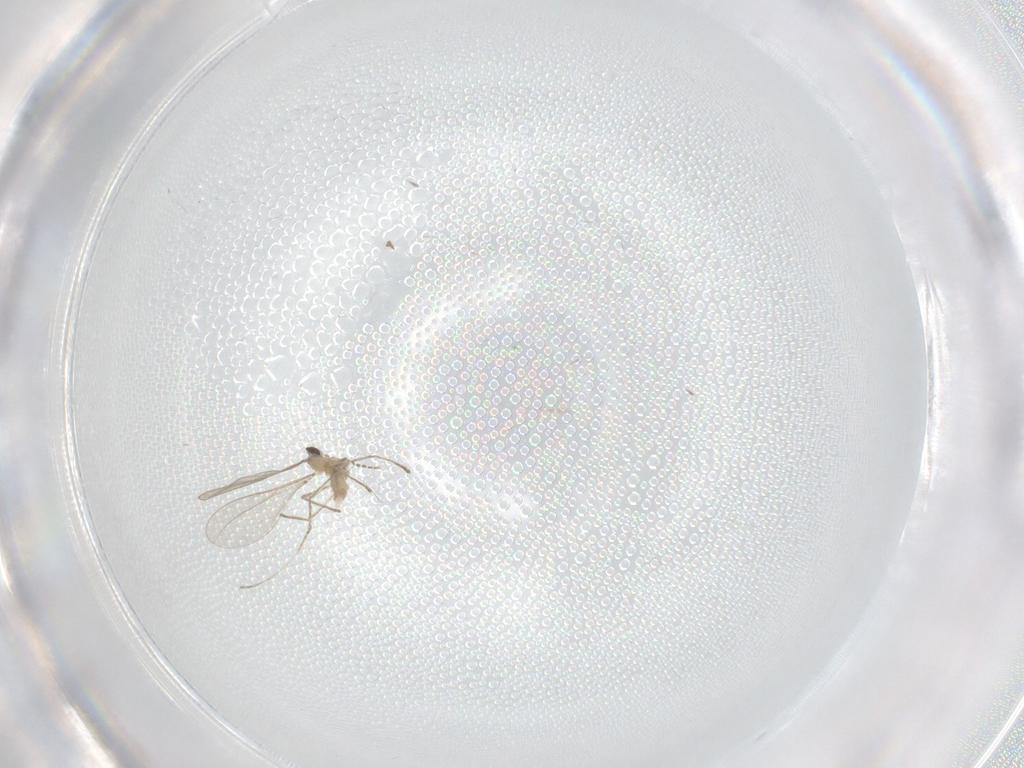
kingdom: Animalia
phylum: Arthropoda
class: Insecta
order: Diptera
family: Cecidomyiidae
